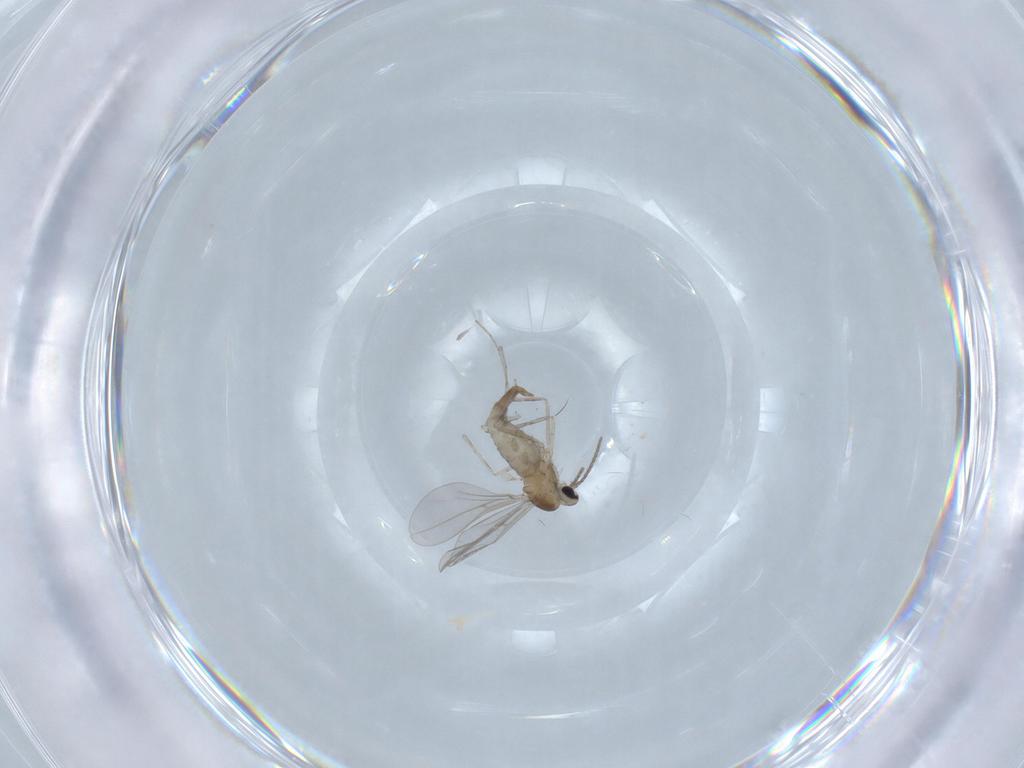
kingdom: Animalia
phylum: Arthropoda
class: Insecta
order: Diptera
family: Cecidomyiidae
